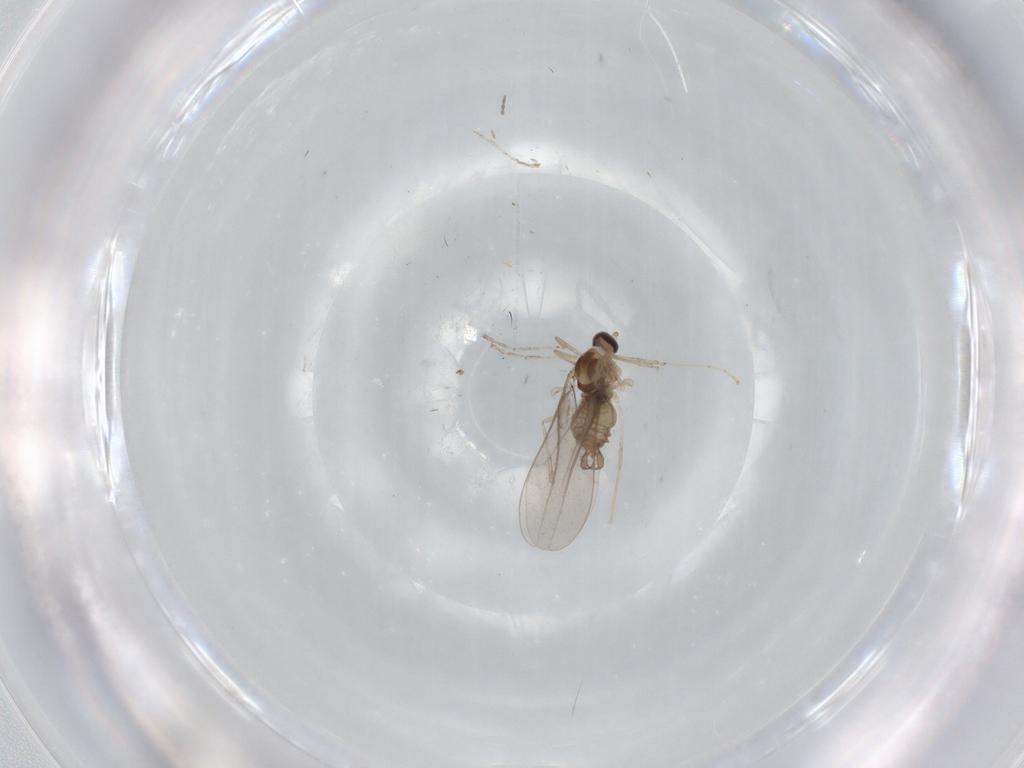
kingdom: Animalia
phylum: Arthropoda
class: Insecta
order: Diptera
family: Cecidomyiidae
